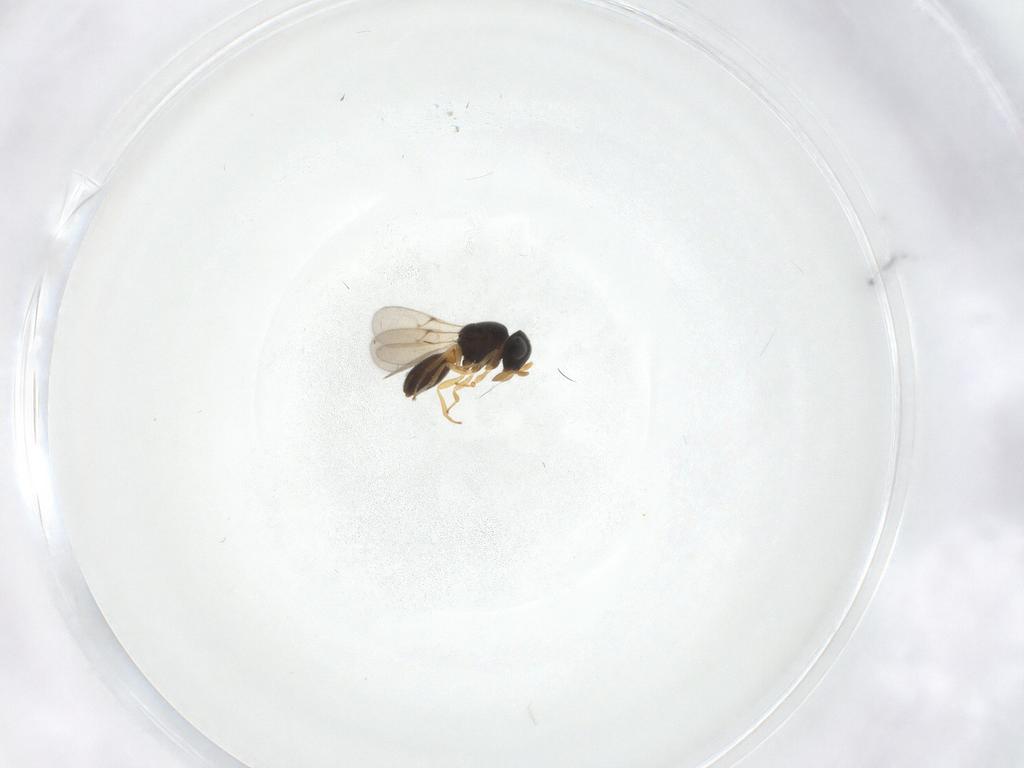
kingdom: Animalia
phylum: Arthropoda
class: Insecta
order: Hymenoptera
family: Scelionidae
